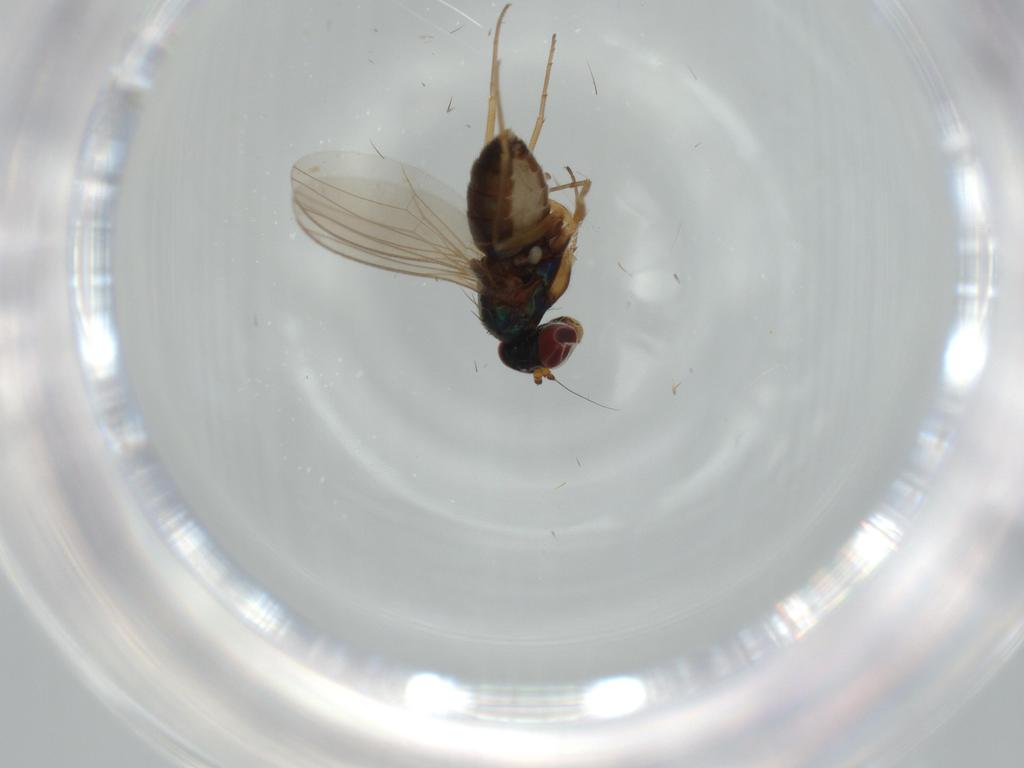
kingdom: Animalia
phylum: Arthropoda
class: Insecta
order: Diptera
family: Dolichopodidae
